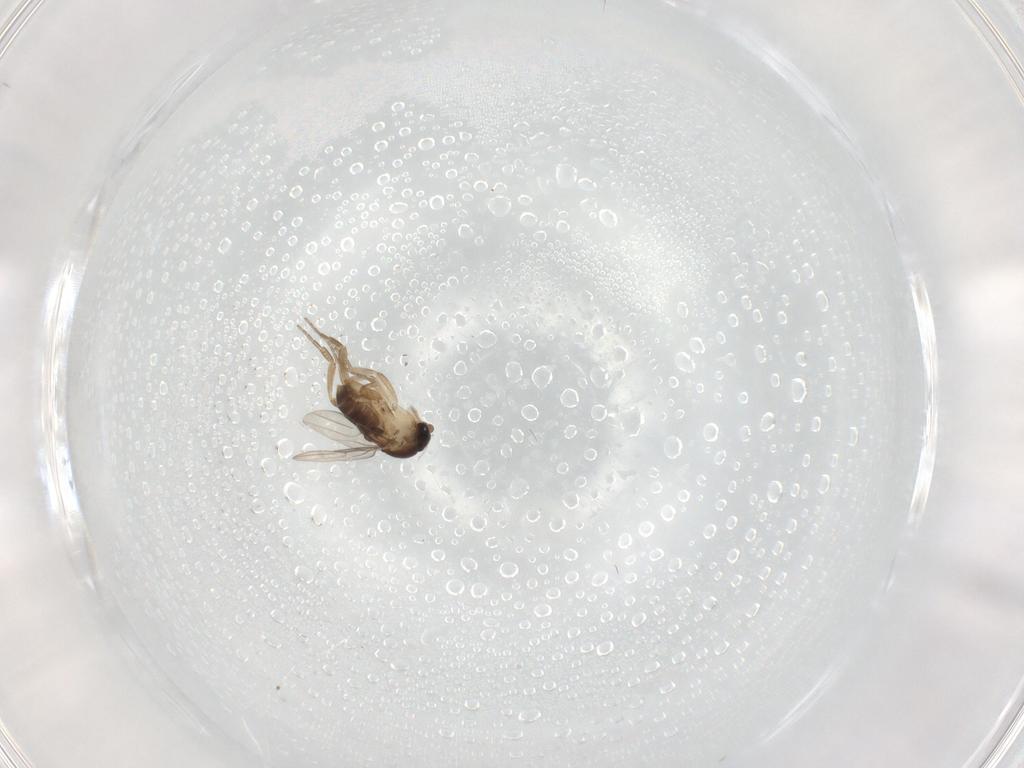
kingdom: Animalia
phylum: Arthropoda
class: Insecta
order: Diptera
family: Phoridae
